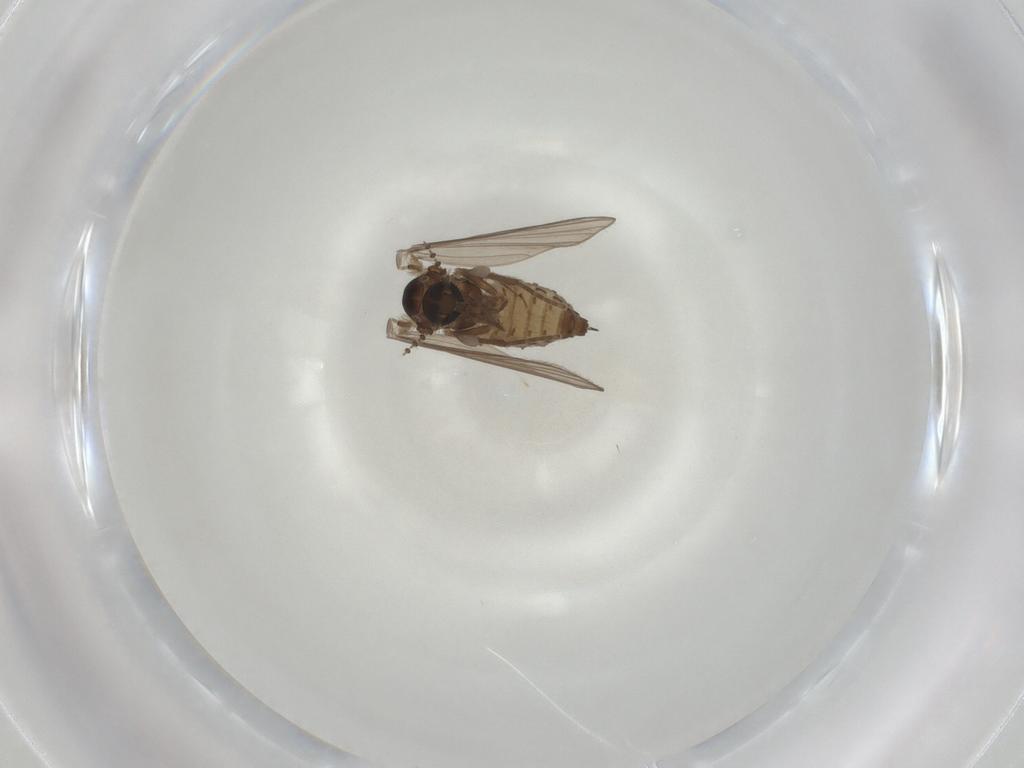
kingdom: Animalia
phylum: Arthropoda
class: Insecta
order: Diptera
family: Psychodidae
